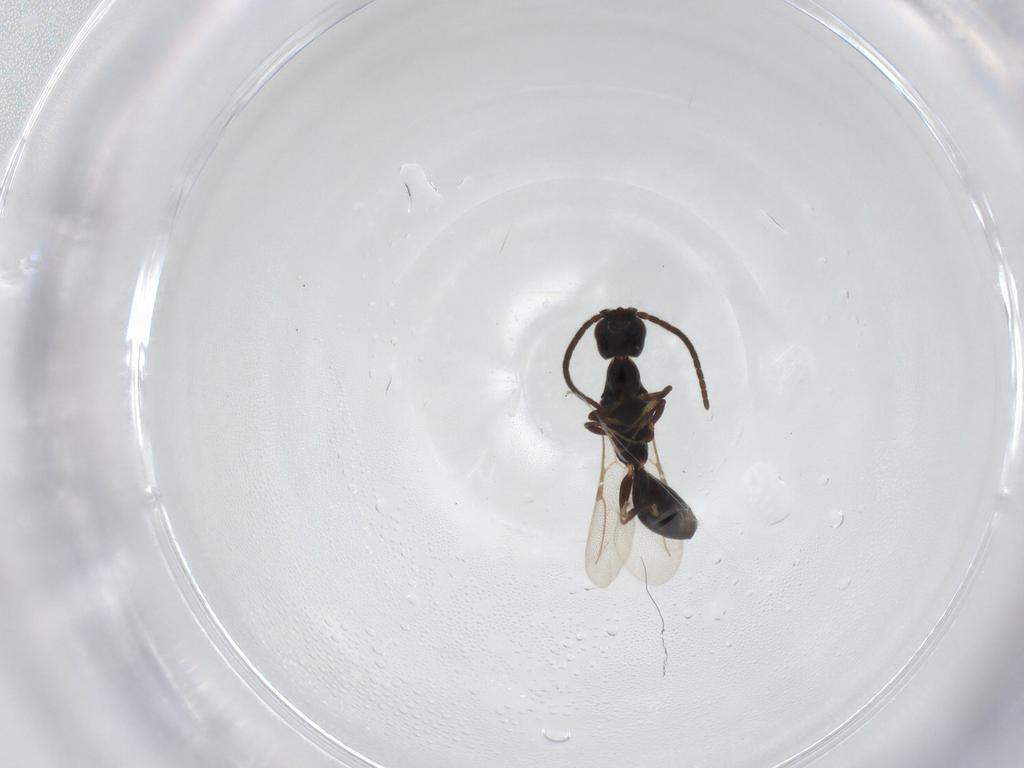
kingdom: Animalia
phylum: Arthropoda
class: Insecta
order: Hymenoptera
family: Bethylidae
